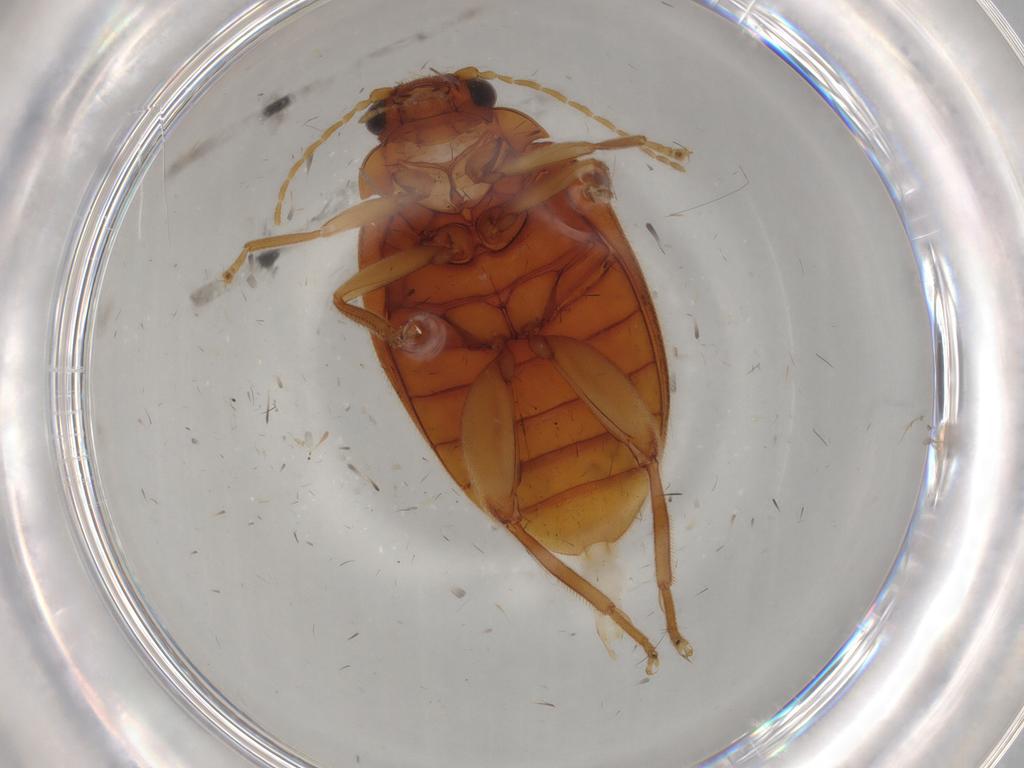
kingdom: Animalia
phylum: Arthropoda
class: Insecta
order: Coleoptera
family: Scirtidae
